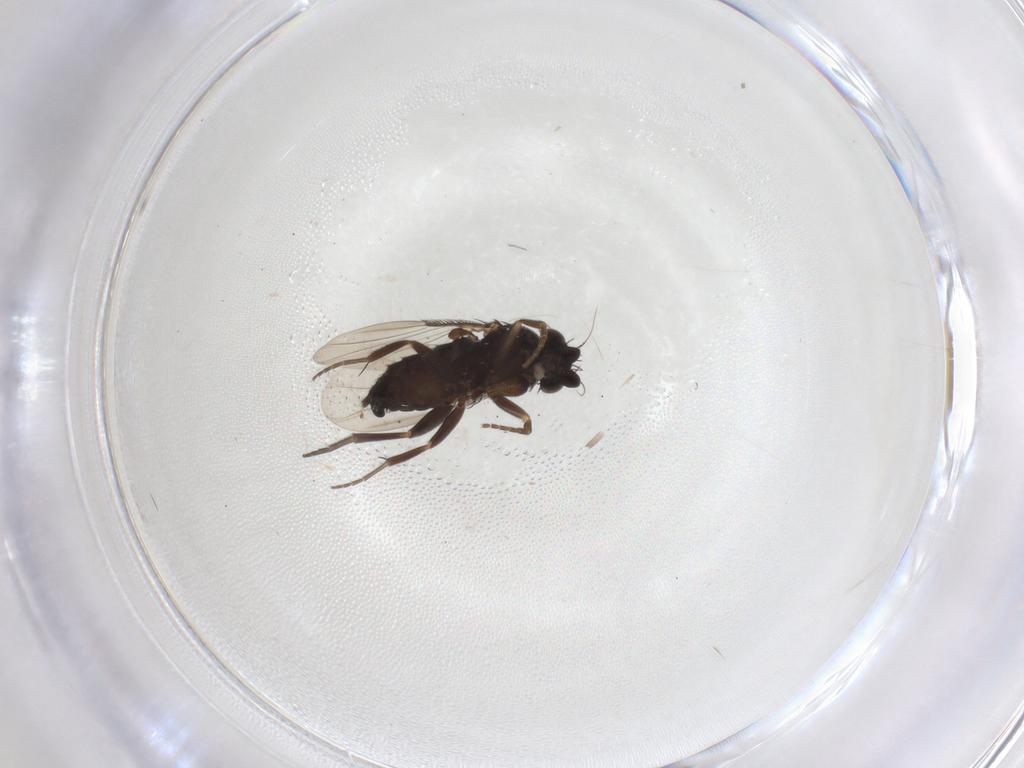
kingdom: Animalia
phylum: Arthropoda
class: Insecta
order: Diptera
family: Phoridae
